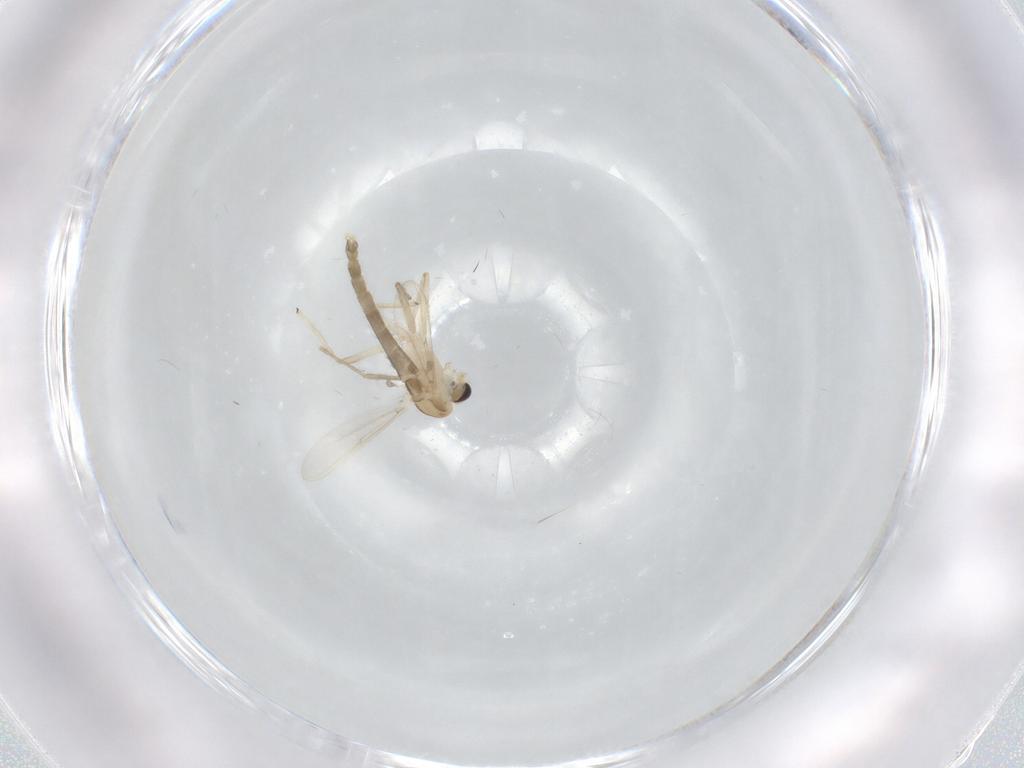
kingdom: Animalia
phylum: Arthropoda
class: Insecta
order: Diptera
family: Chironomidae
